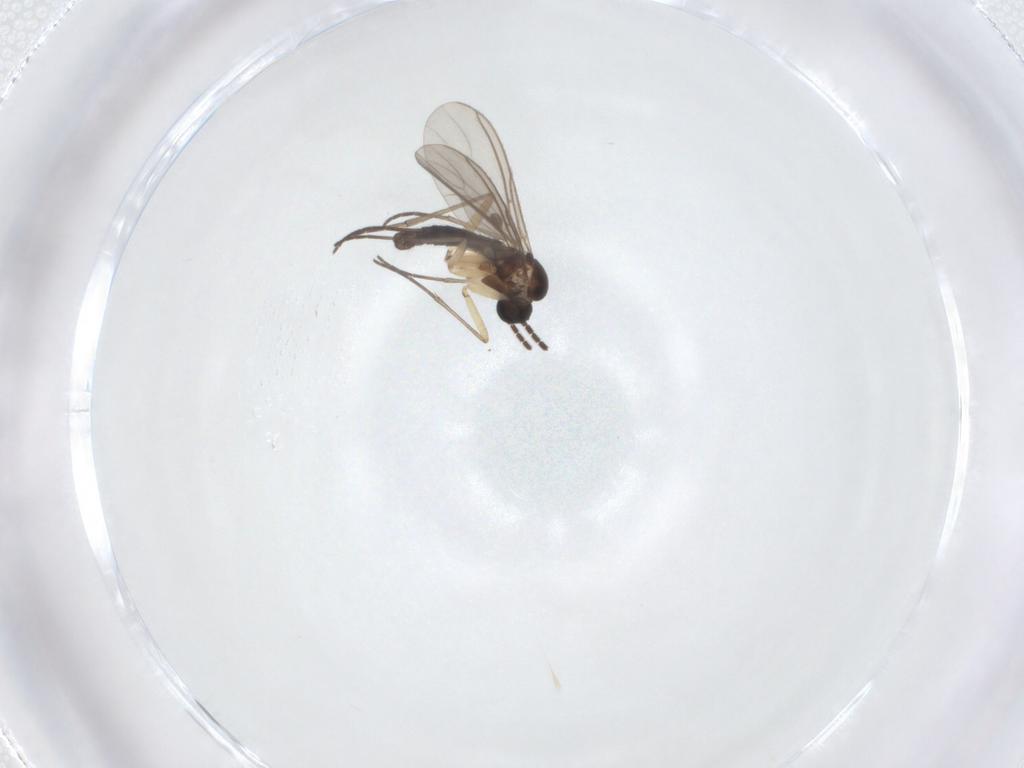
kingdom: Animalia
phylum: Arthropoda
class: Insecta
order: Diptera
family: Sciaridae
